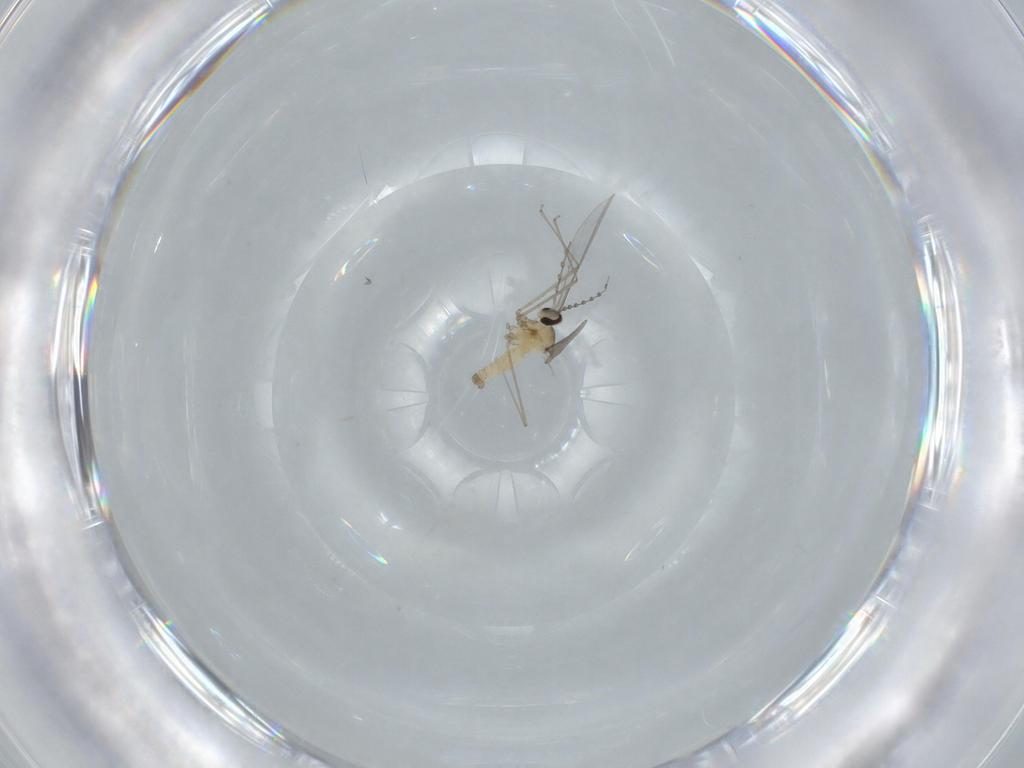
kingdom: Animalia
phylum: Arthropoda
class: Insecta
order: Diptera
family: Cecidomyiidae
